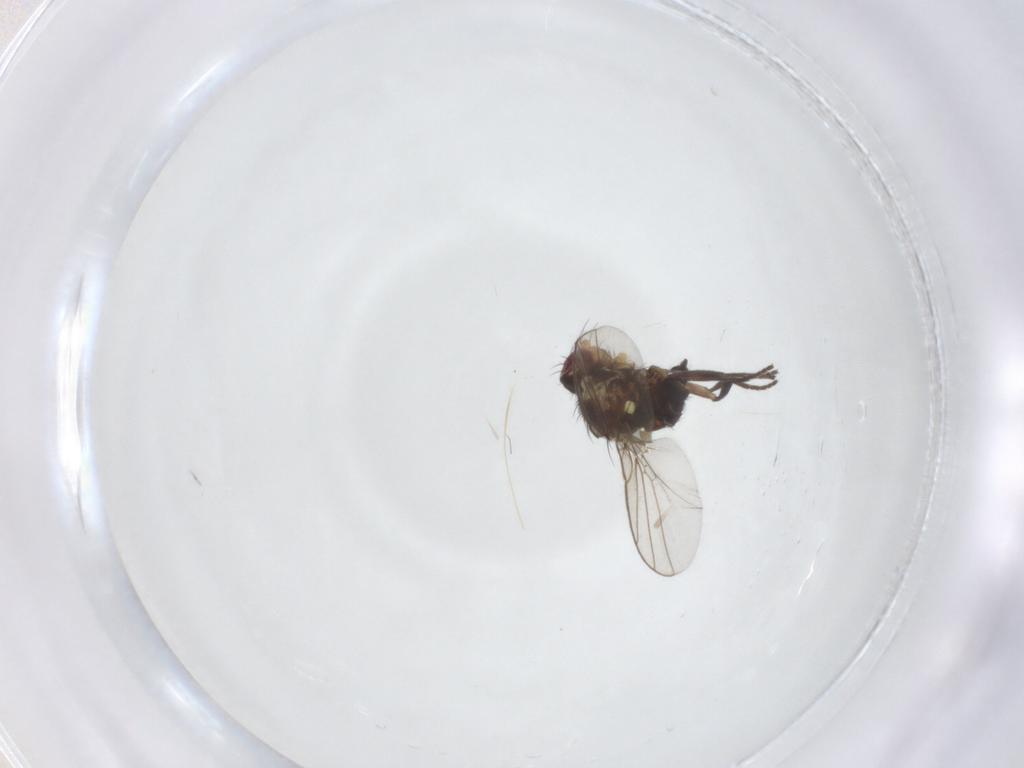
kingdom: Animalia
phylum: Arthropoda
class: Insecta
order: Diptera
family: Agromyzidae
